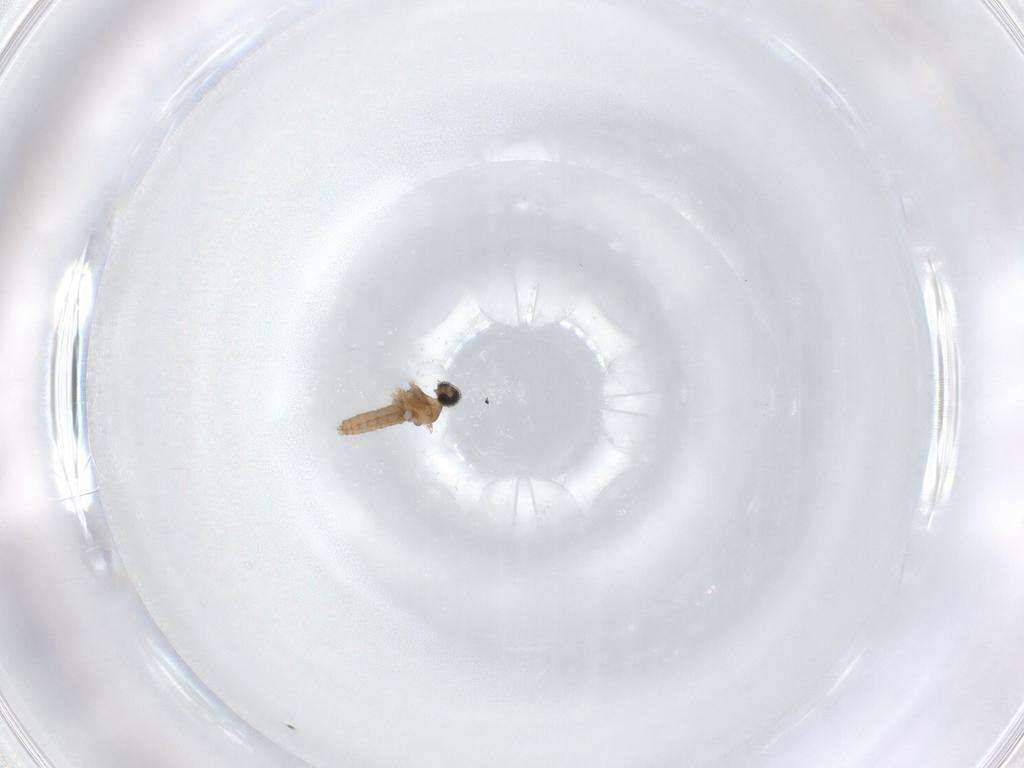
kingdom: Animalia
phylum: Arthropoda
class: Insecta
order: Diptera
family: Cecidomyiidae
